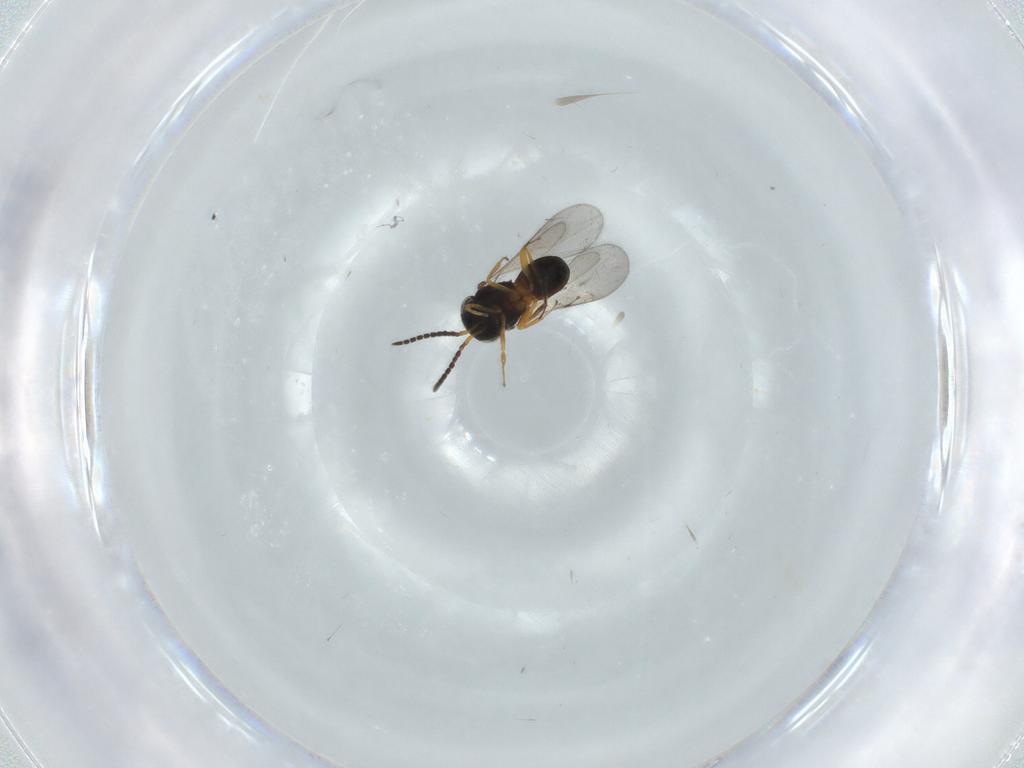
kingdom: Animalia
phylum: Arthropoda
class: Insecta
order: Hymenoptera
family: Scelionidae
